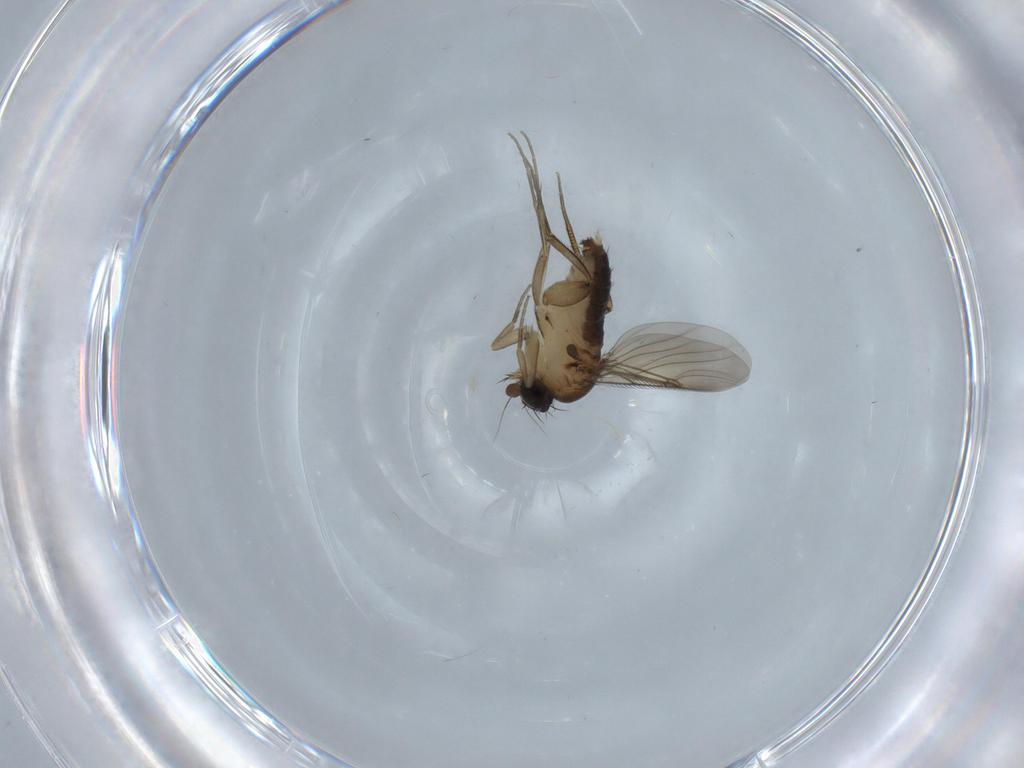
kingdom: Animalia
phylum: Arthropoda
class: Insecta
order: Diptera
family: Phoridae
